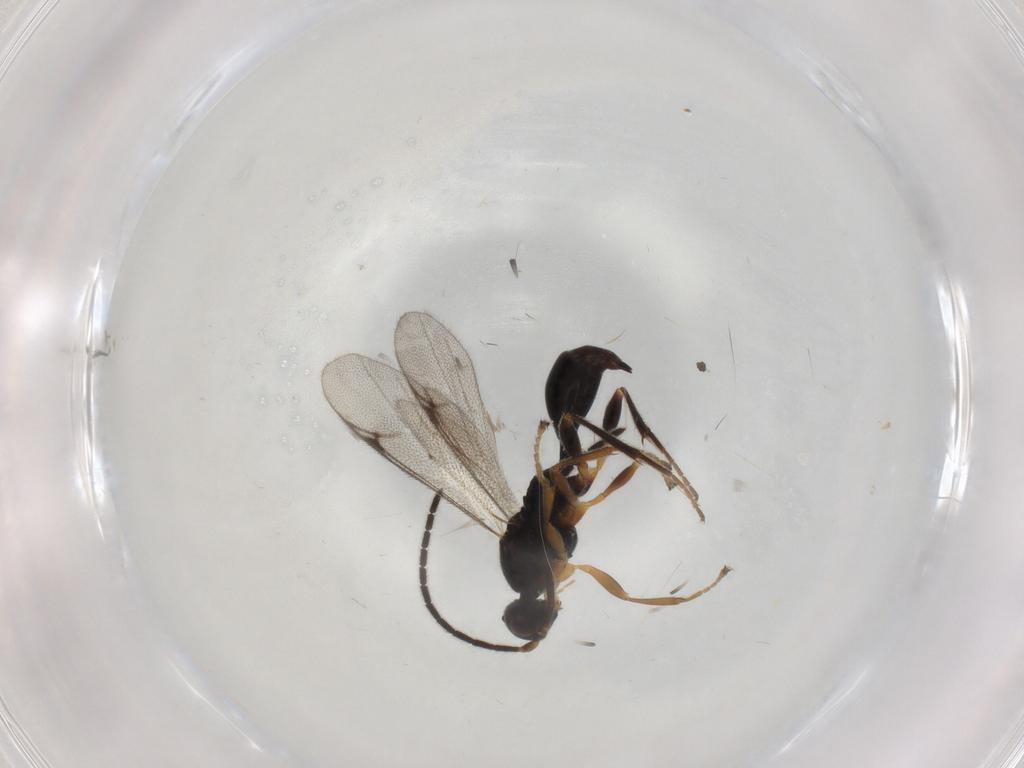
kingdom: Animalia
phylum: Arthropoda
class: Insecta
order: Hymenoptera
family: Proctotrupidae
